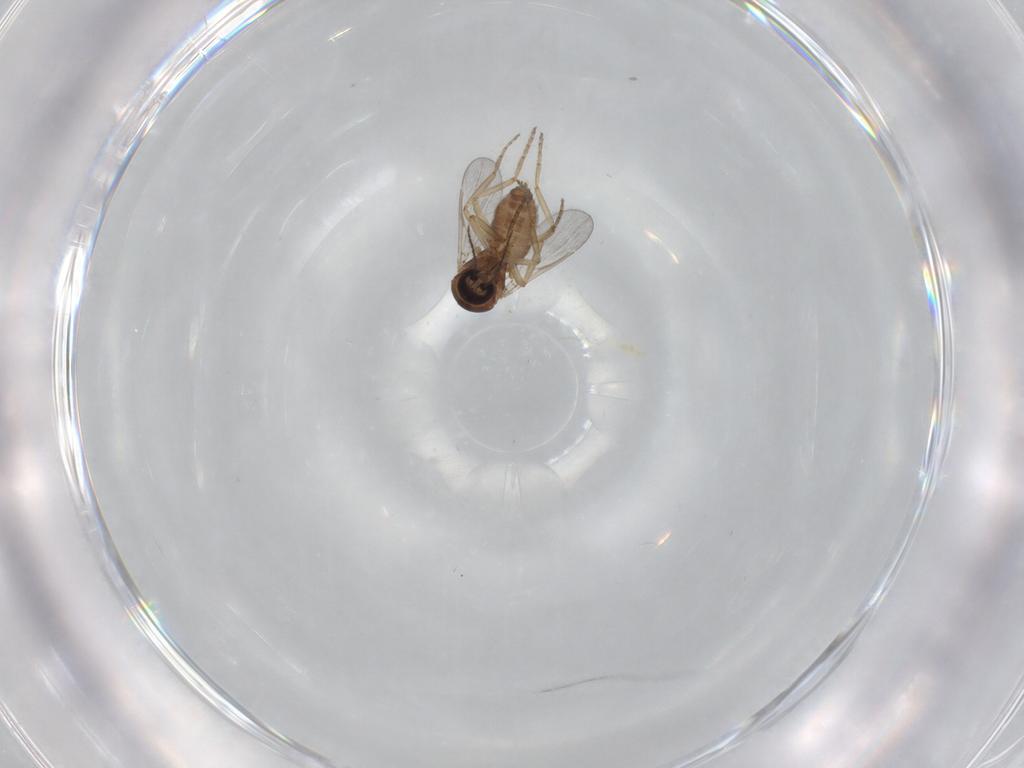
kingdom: Animalia
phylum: Arthropoda
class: Insecta
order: Diptera
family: Ceratopogonidae
